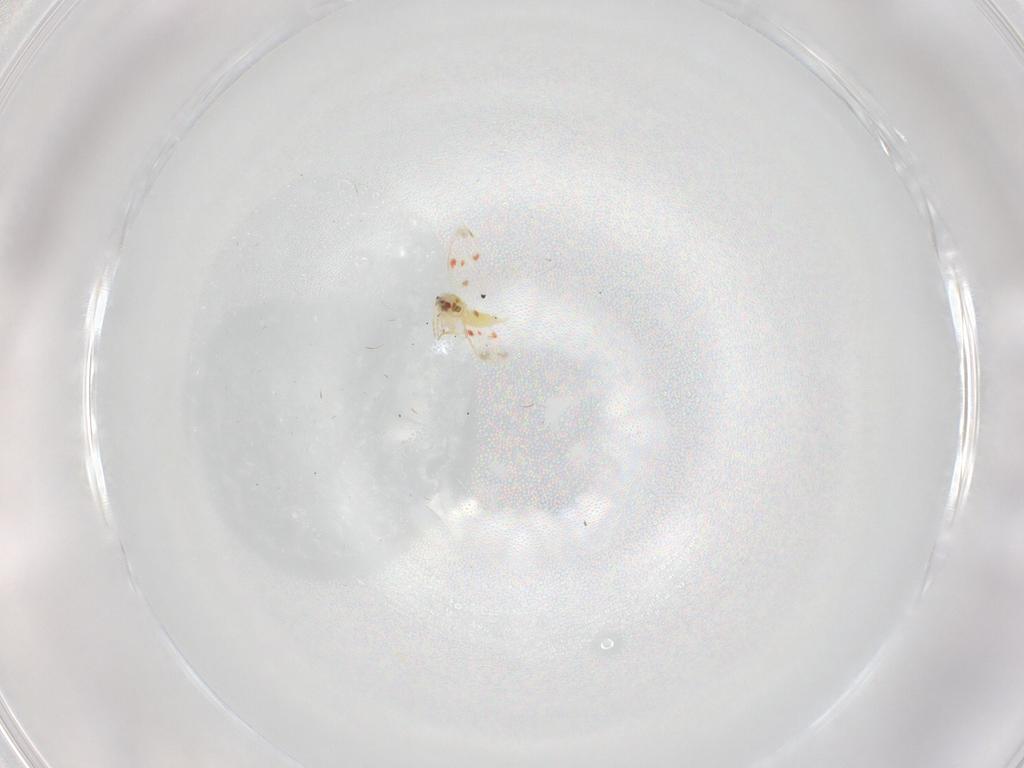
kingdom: Animalia
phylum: Arthropoda
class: Insecta
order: Hemiptera
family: Aleyrodidae
